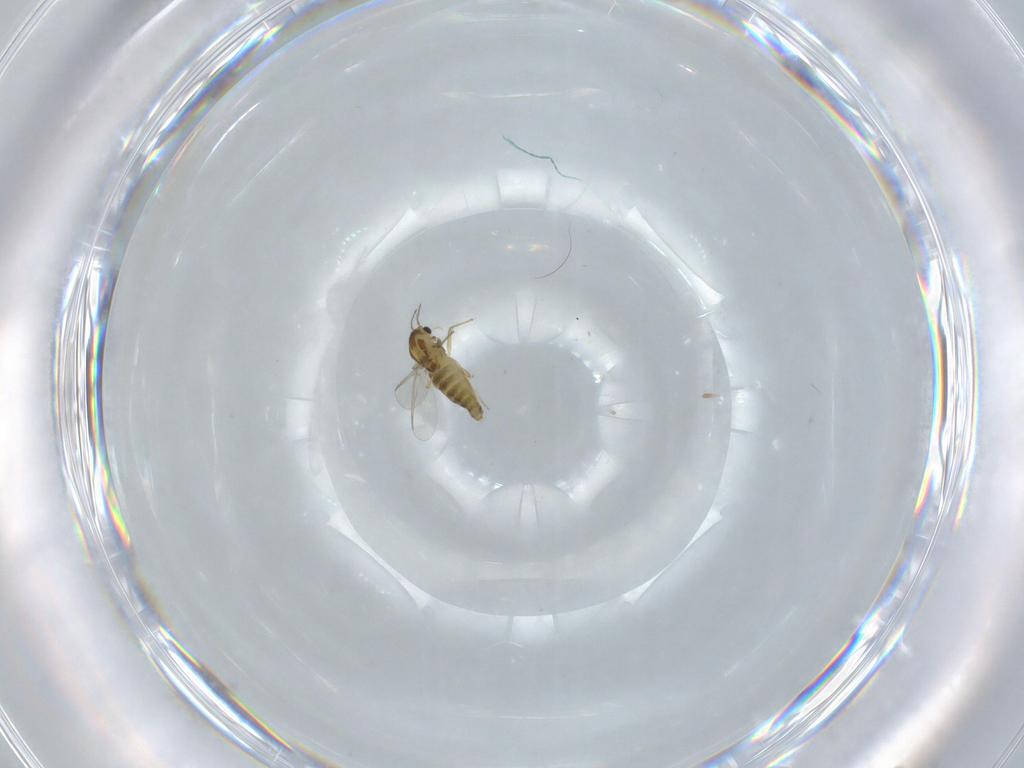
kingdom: Animalia
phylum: Arthropoda
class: Insecta
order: Diptera
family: Chironomidae
